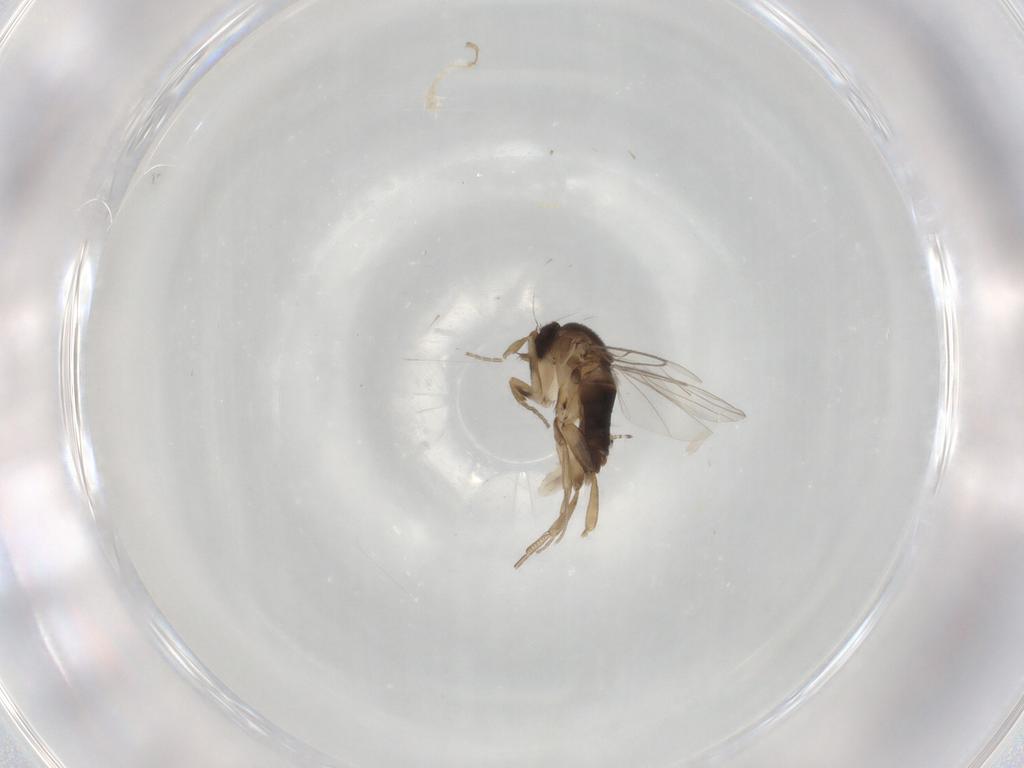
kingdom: Animalia
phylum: Arthropoda
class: Insecta
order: Diptera
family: Phoridae
